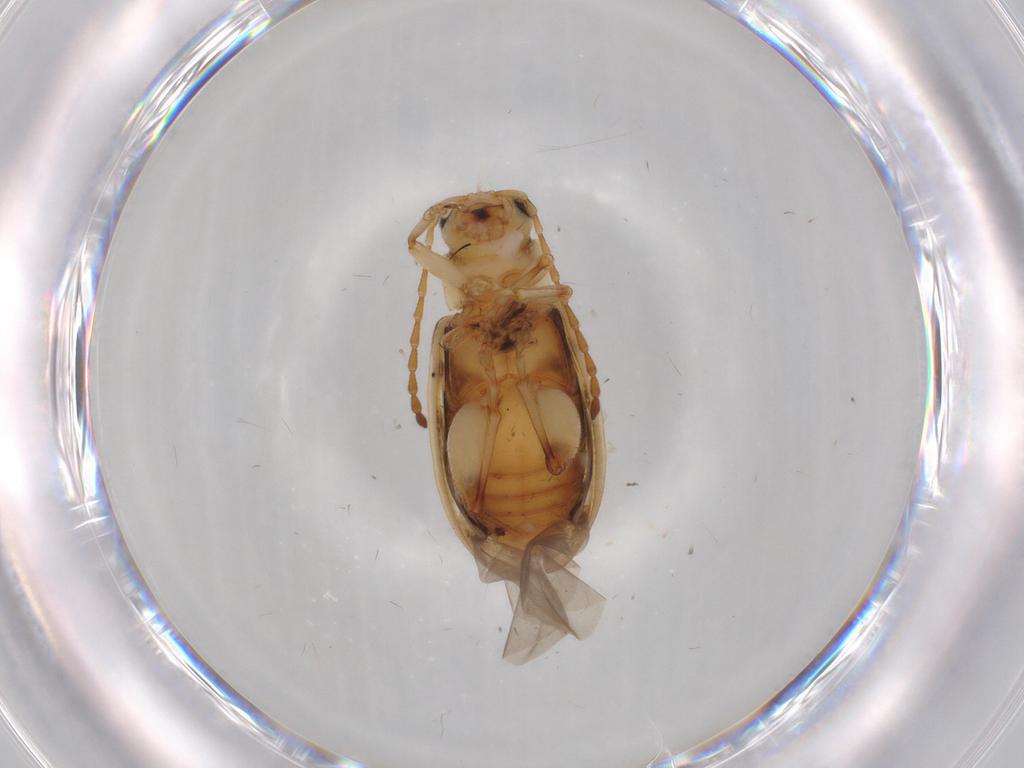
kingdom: Animalia
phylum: Arthropoda
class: Insecta
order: Coleoptera
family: Chrysomelidae
